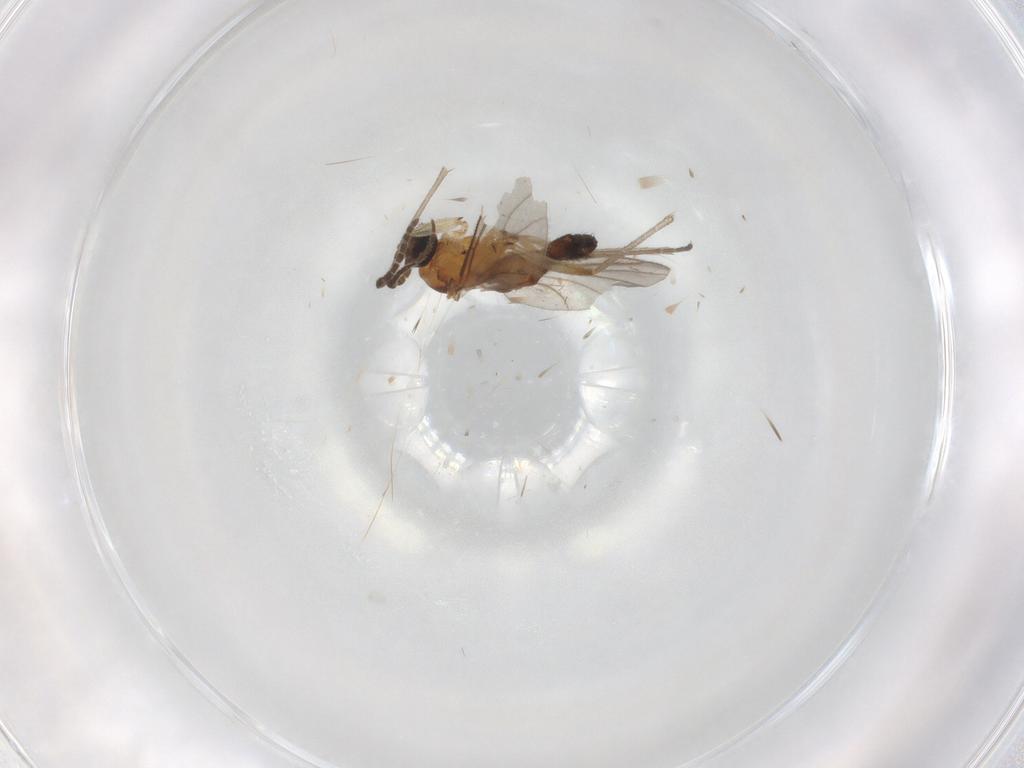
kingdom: Animalia
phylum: Arthropoda
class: Insecta
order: Diptera
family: Sciaridae
